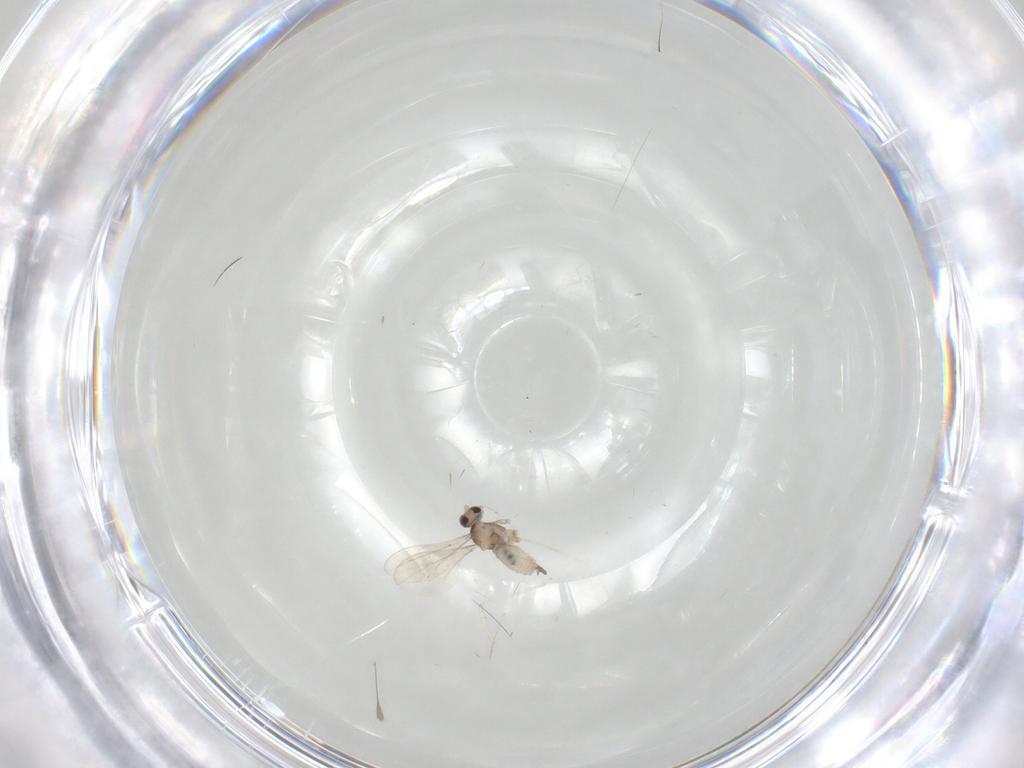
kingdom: Animalia
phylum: Arthropoda
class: Insecta
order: Diptera
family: Cecidomyiidae
